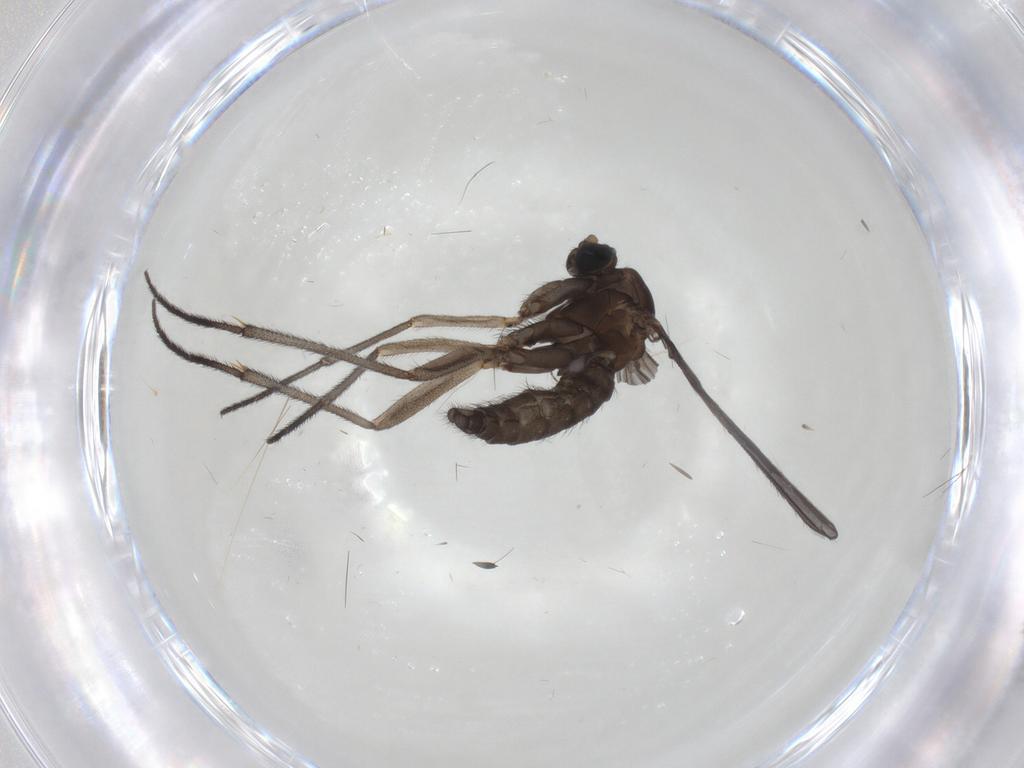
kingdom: Animalia
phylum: Arthropoda
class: Insecta
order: Diptera
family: Sciaridae
